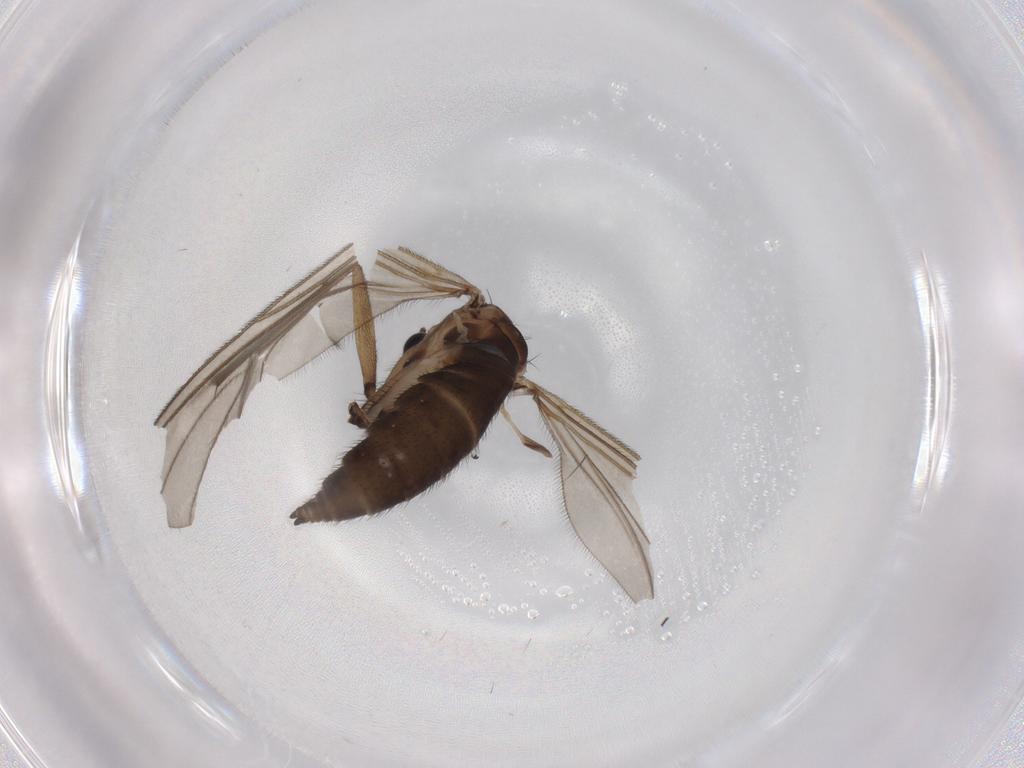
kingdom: Animalia
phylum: Arthropoda
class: Insecta
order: Diptera
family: Sciaridae
